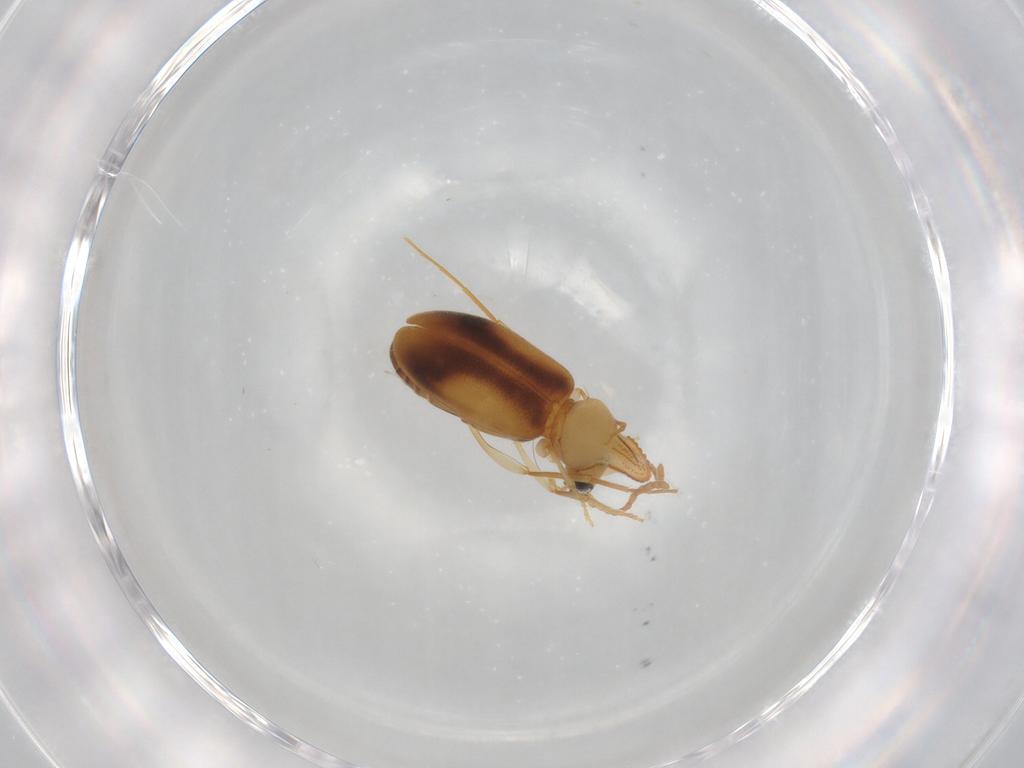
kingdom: Animalia
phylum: Arthropoda
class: Insecta
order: Coleoptera
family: Anthicidae
